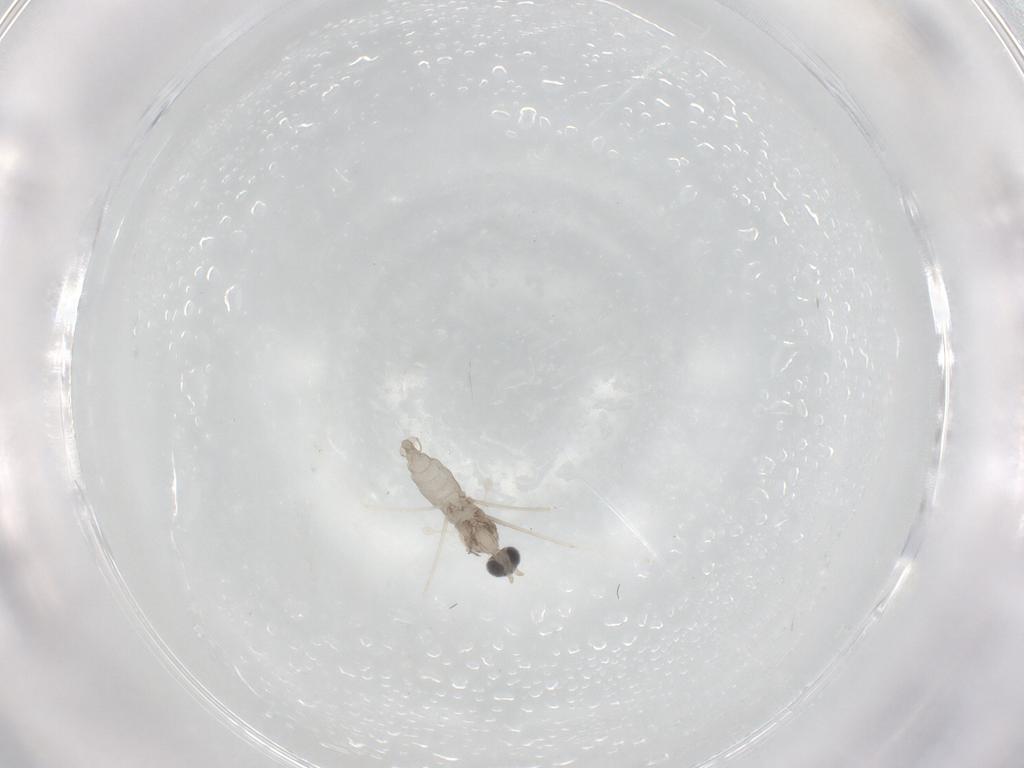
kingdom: Animalia
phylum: Arthropoda
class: Insecta
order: Diptera
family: Cecidomyiidae
